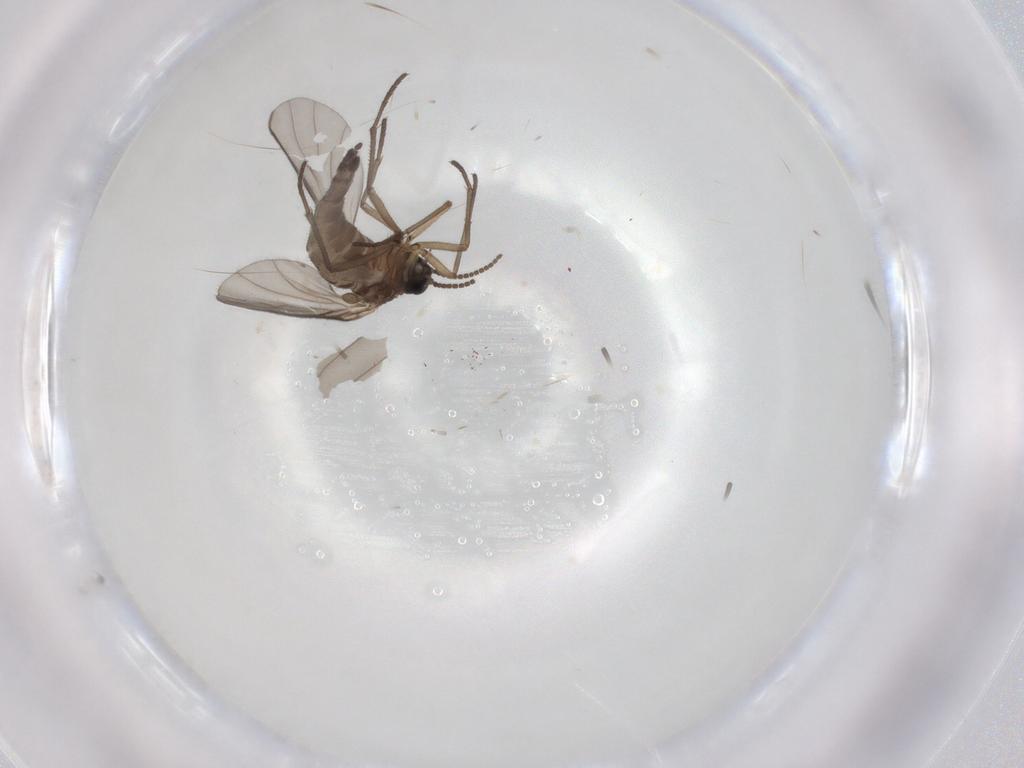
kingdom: Animalia
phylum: Arthropoda
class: Insecta
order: Diptera
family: Sciaridae
